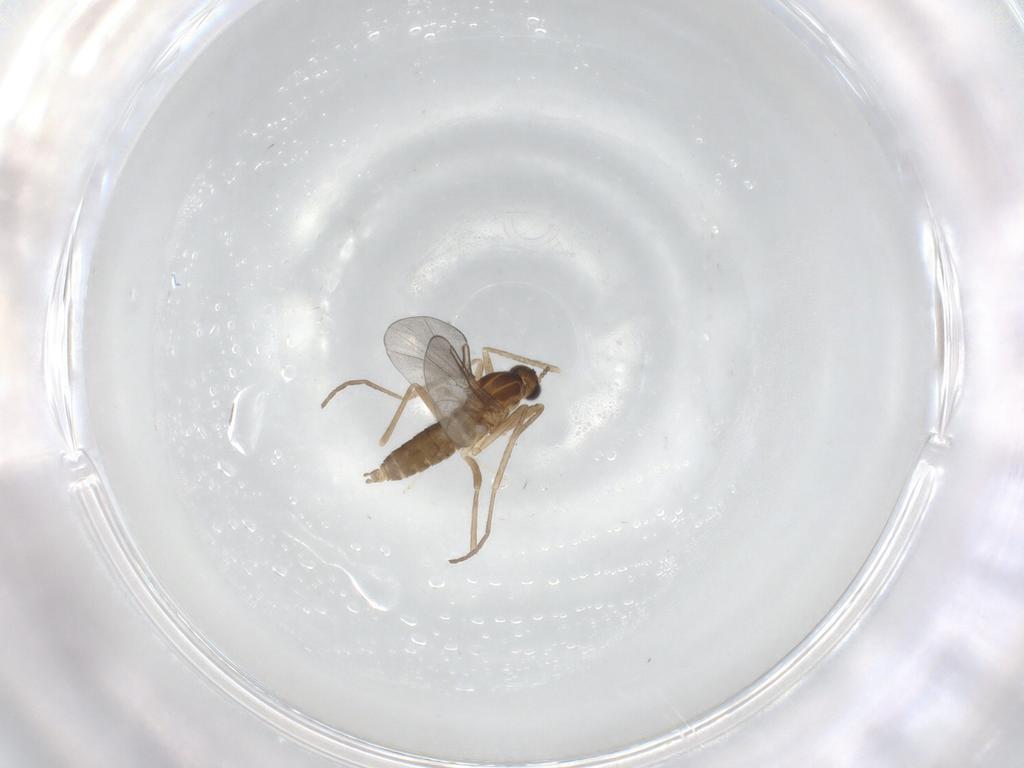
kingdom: Animalia
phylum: Arthropoda
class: Insecta
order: Diptera
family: Cecidomyiidae
